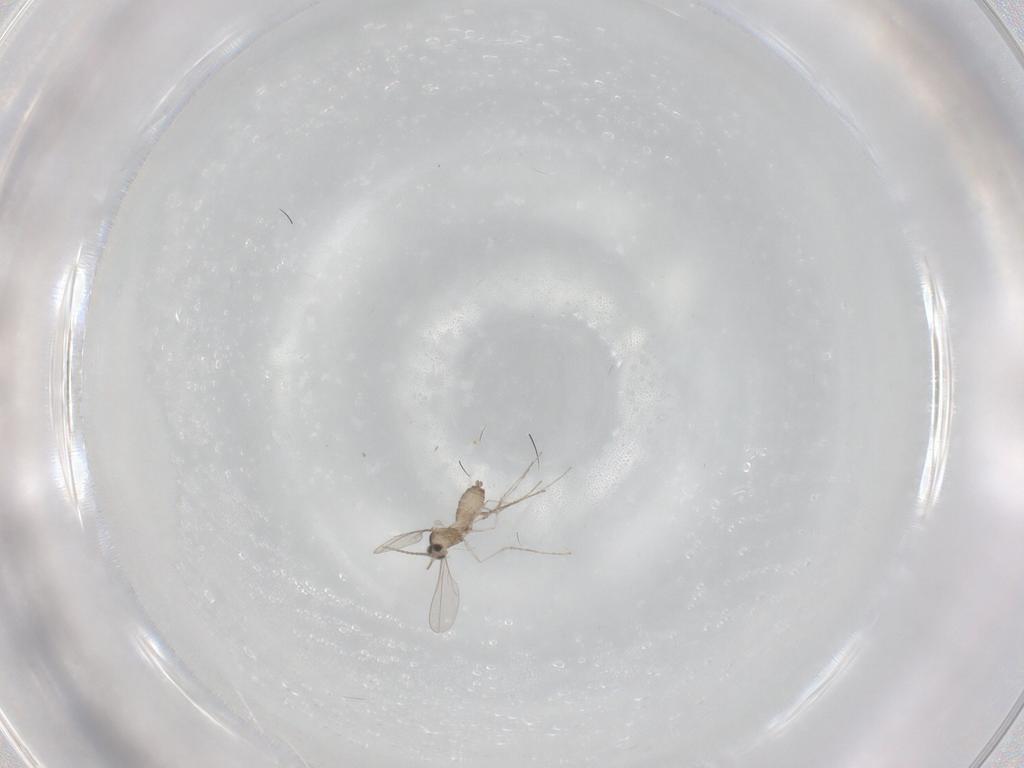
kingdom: Animalia
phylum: Arthropoda
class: Insecta
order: Diptera
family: Cecidomyiidae
